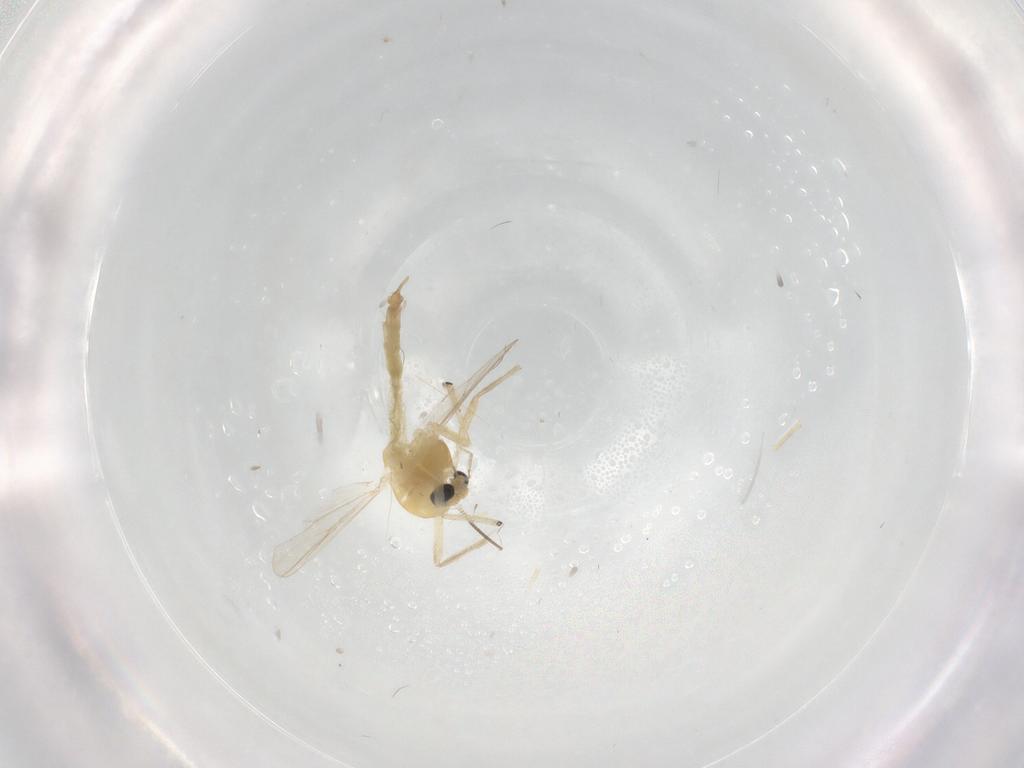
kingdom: Animalia
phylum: Arthropoda
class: Insecta
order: Diptera
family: Chironomidae
